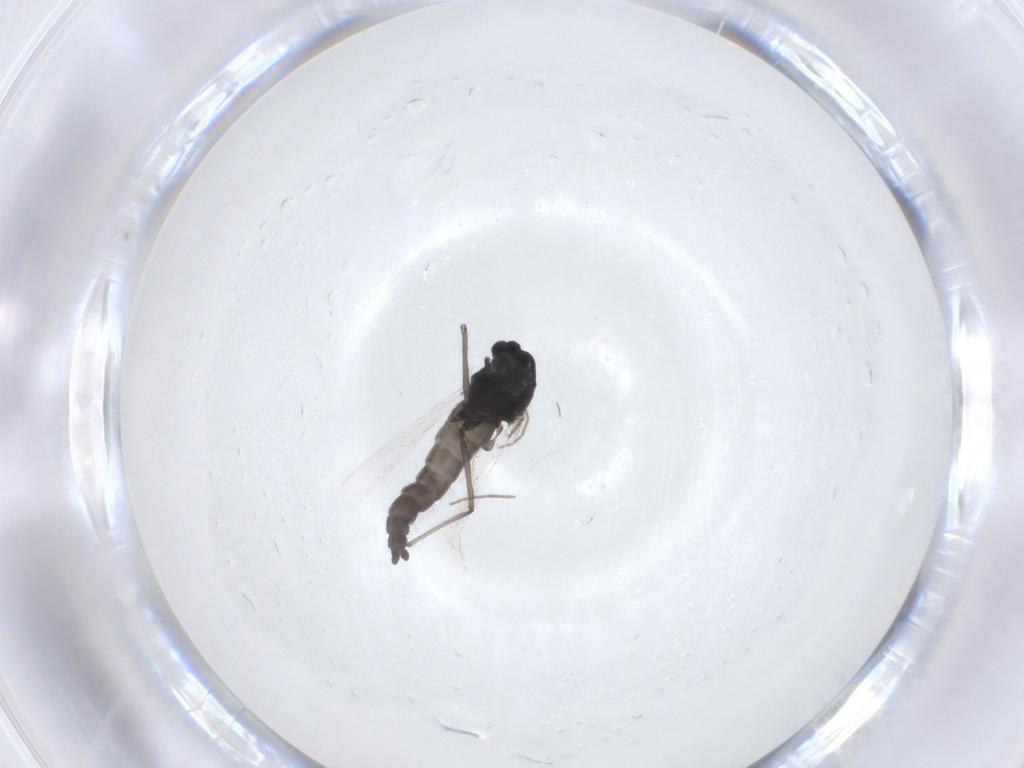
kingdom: Animalia
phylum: Arthropoda
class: Insecta
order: Diptera
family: Chironomidae
